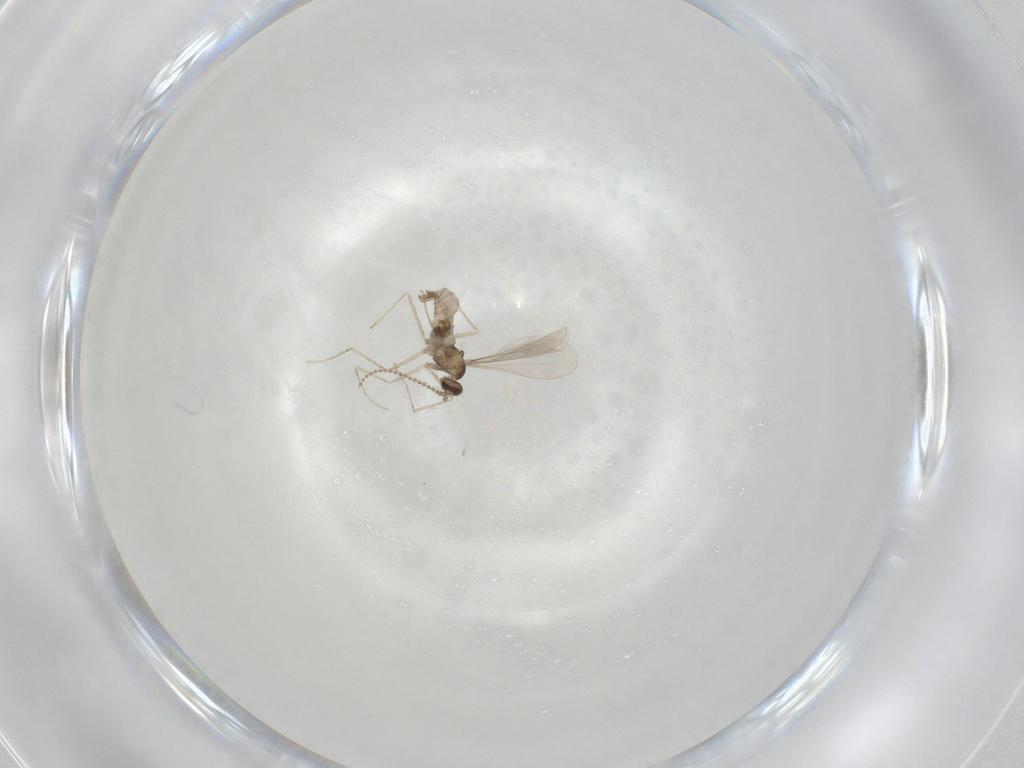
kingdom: Animalia
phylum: Arthropoda
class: Insecta
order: Diptera
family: Cecidomyiidae
